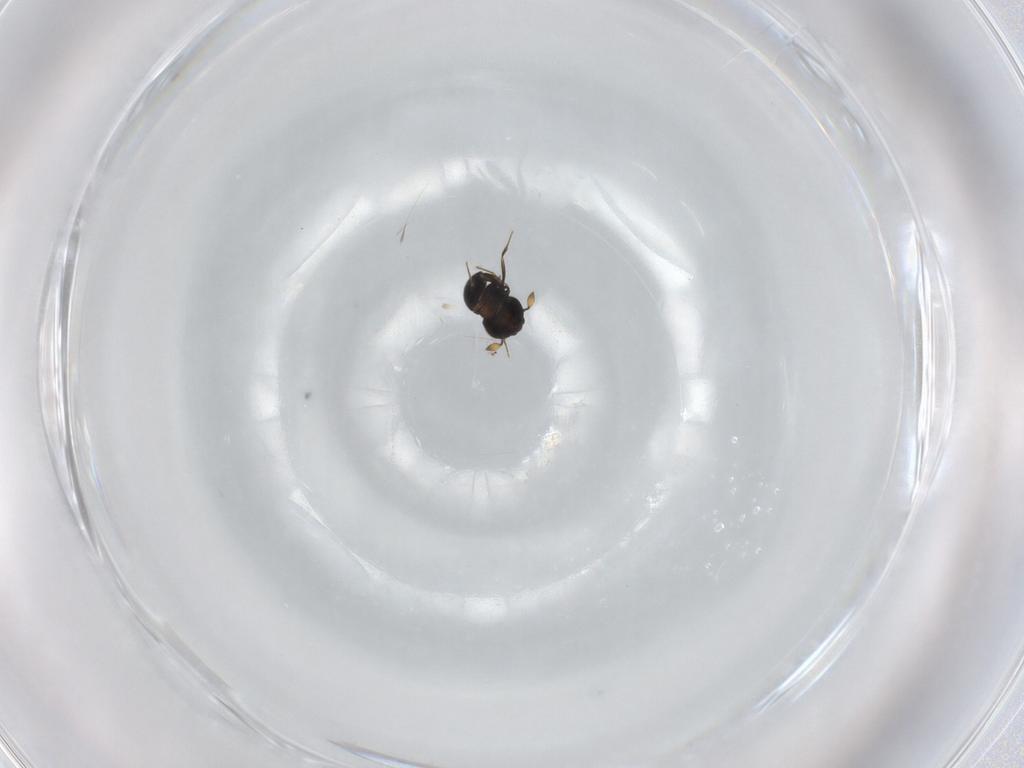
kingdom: Animalia
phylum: Arthropoda
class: Insecta
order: Hymenoptera
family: Scelionidae
